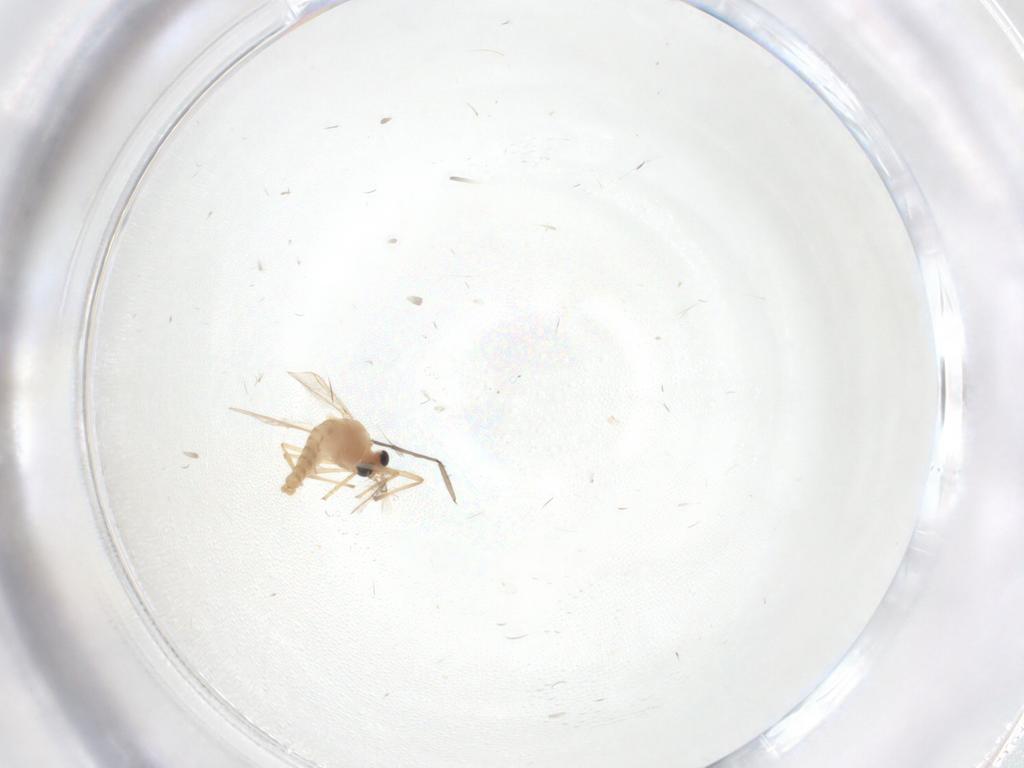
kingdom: Animalia
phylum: Arthropoda
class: Insecta
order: Diptera
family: Chironomidae
